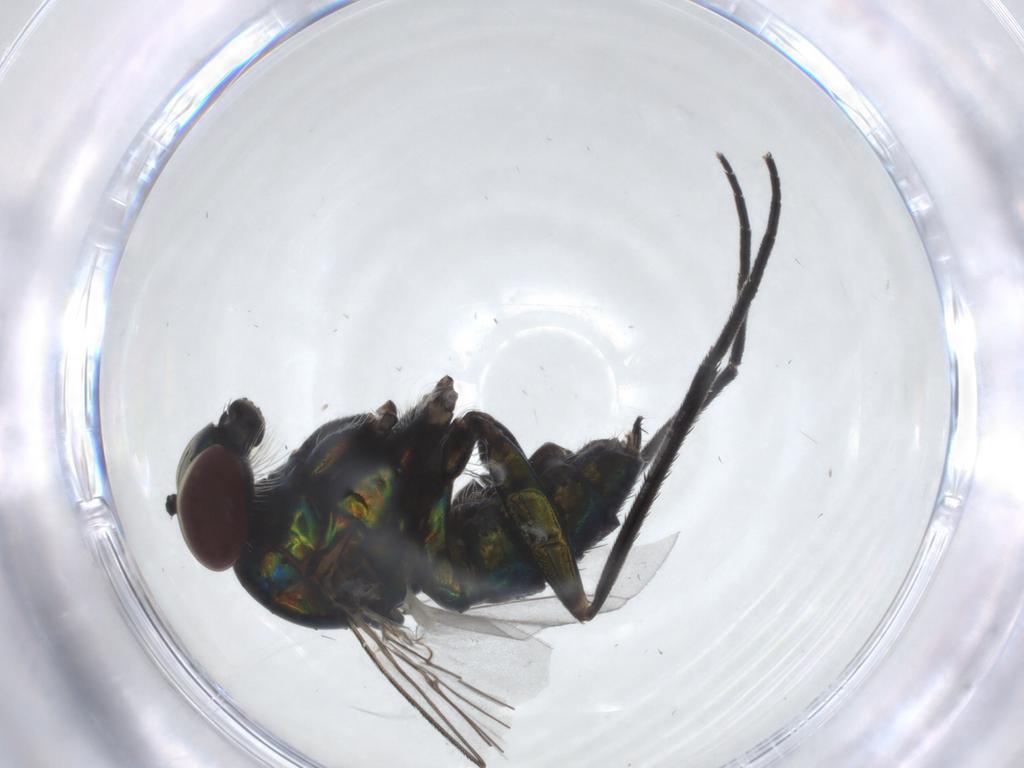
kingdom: Animalia
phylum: Arthropoda
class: Insecta
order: Diptera
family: Dolichopodidae
